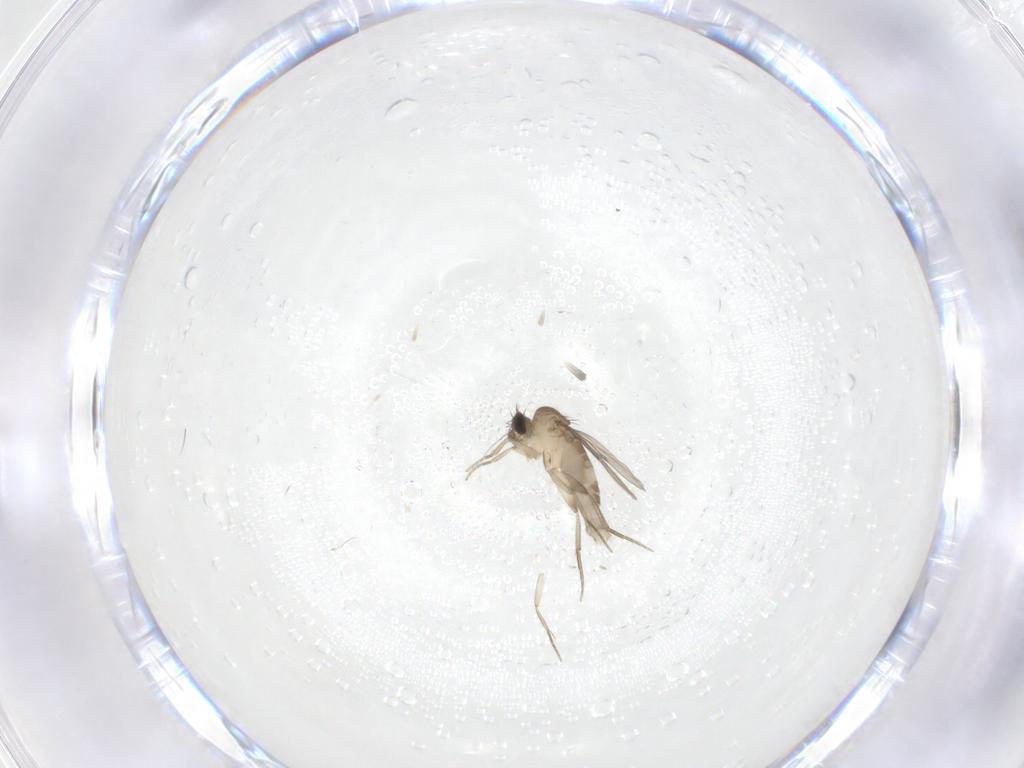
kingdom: Animalia
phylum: Arthropoda
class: Insecta
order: Diptera
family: Phoridae
